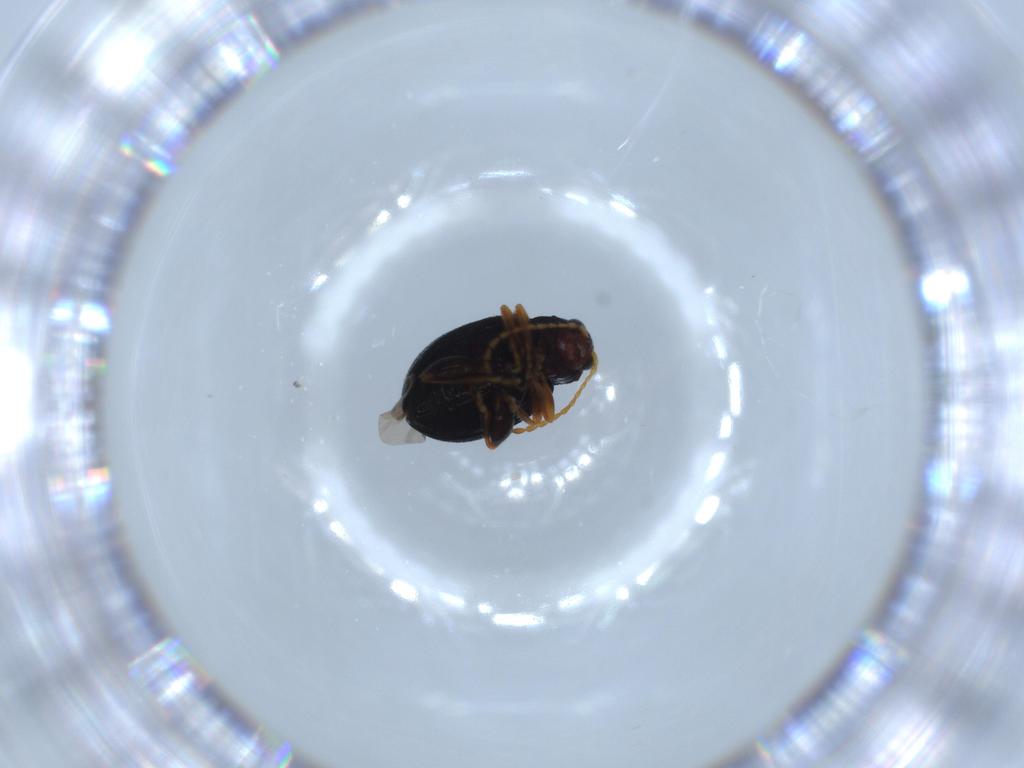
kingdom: Animalia
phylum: Arthropoda
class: Insecta
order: Coleoptera
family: Chrysomelidae
